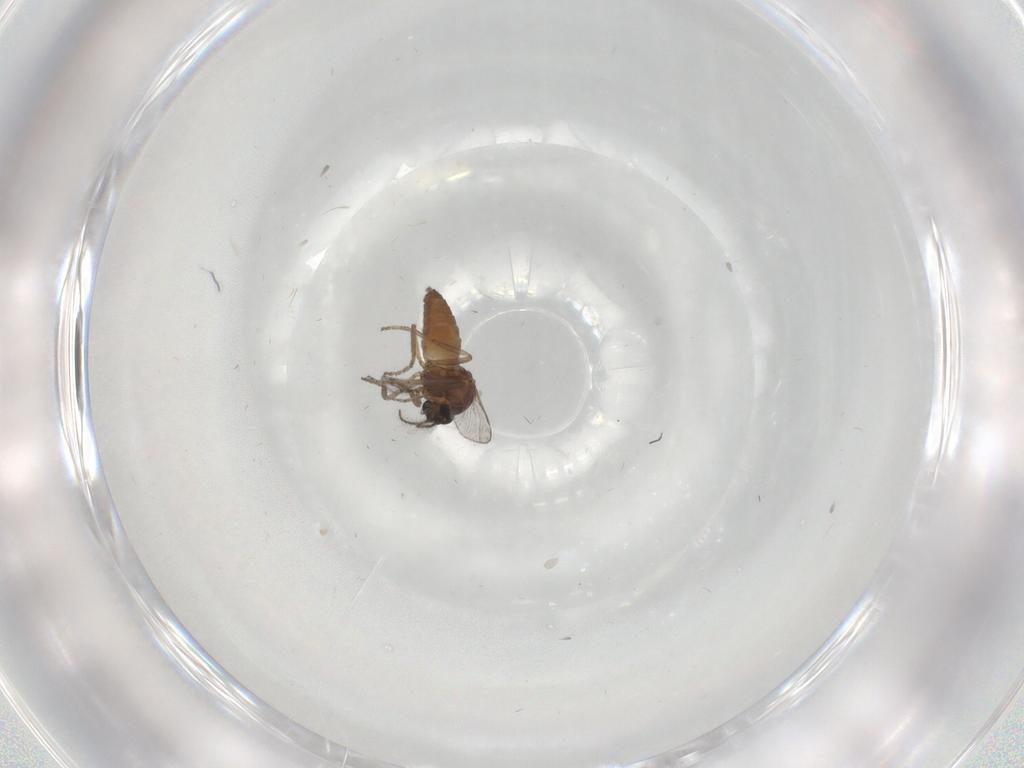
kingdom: Animalia
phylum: Arthropoda
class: Insecta
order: Diptera
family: Ceratopogonidae
